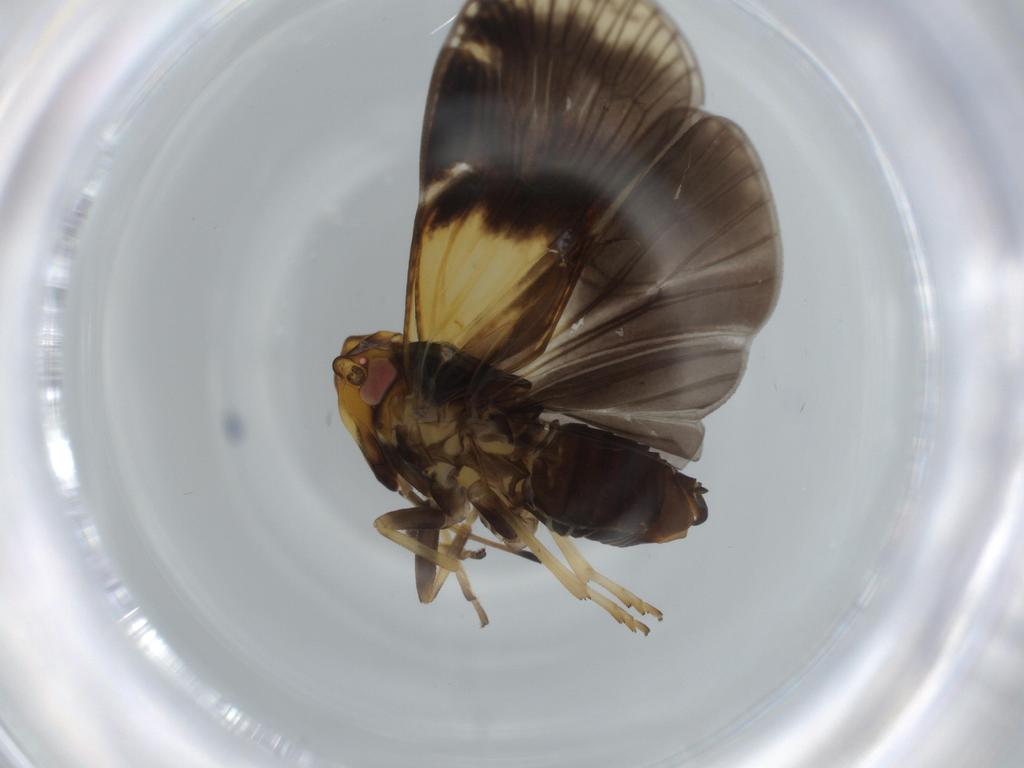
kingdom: Animalia
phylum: Arthropoda
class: Insecta
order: Hemiptera
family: Cixiidae
